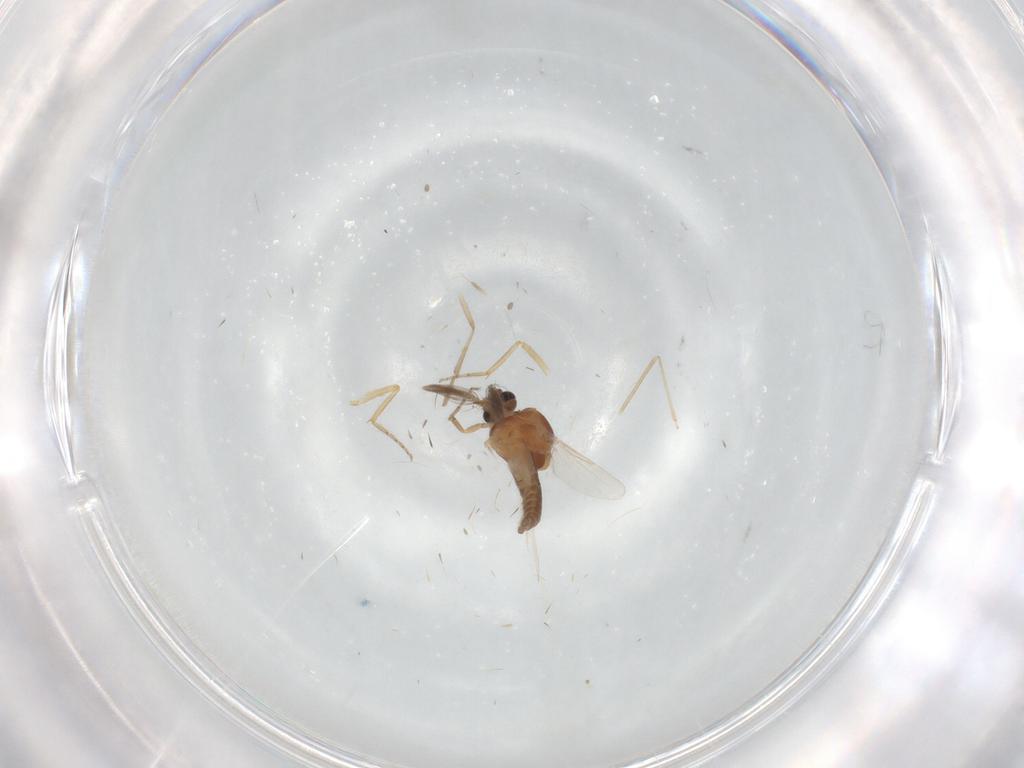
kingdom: Animalia
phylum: Arthropoda
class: Insecta
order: Diptera
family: Ceratopogonidae
